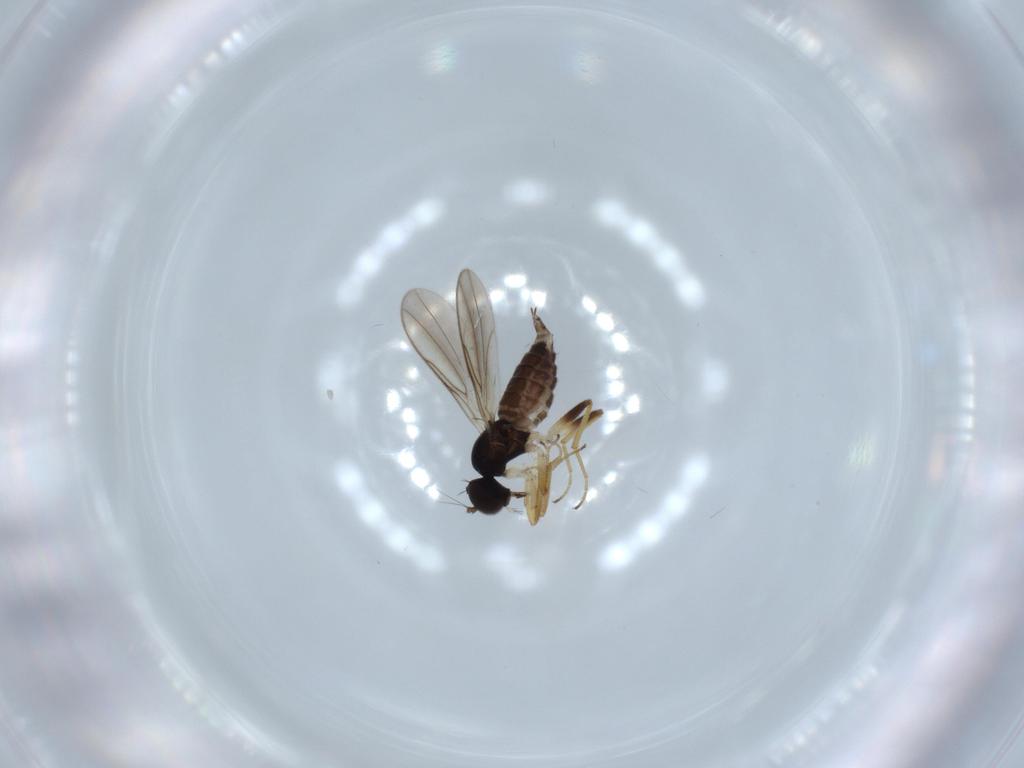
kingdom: Animalia
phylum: Arthropoda
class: Insecta
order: Diptera
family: Hybotidae
